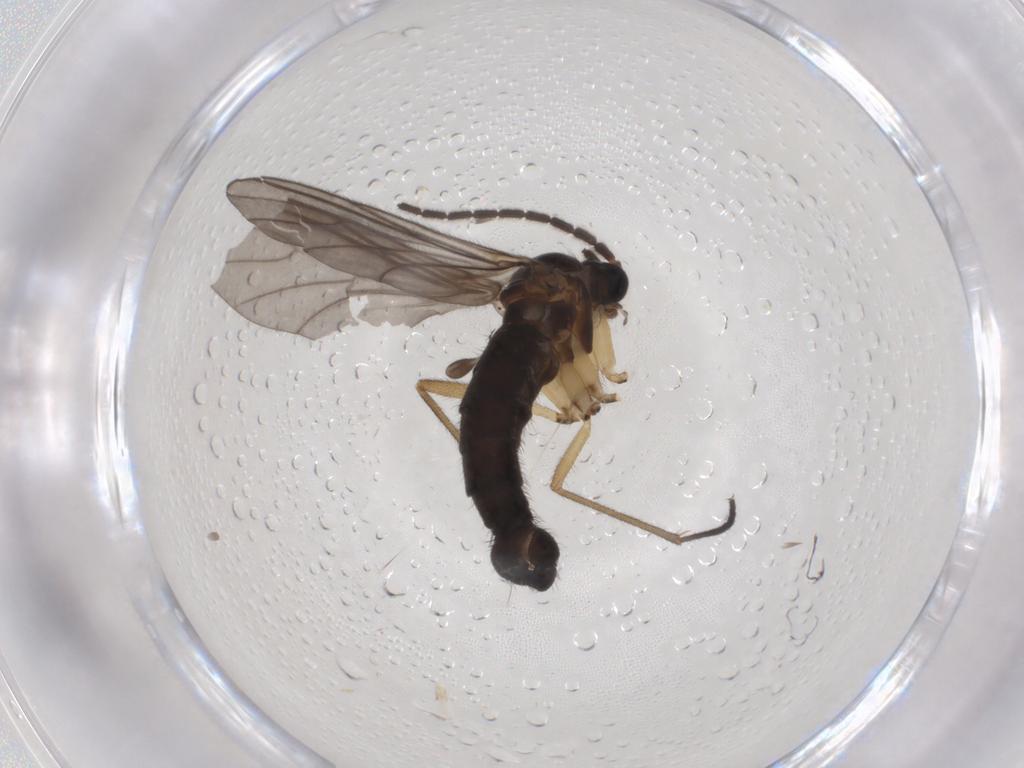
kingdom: Animalia
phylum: Arthropoda
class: Insecta
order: Diptera
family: Sciaridae
